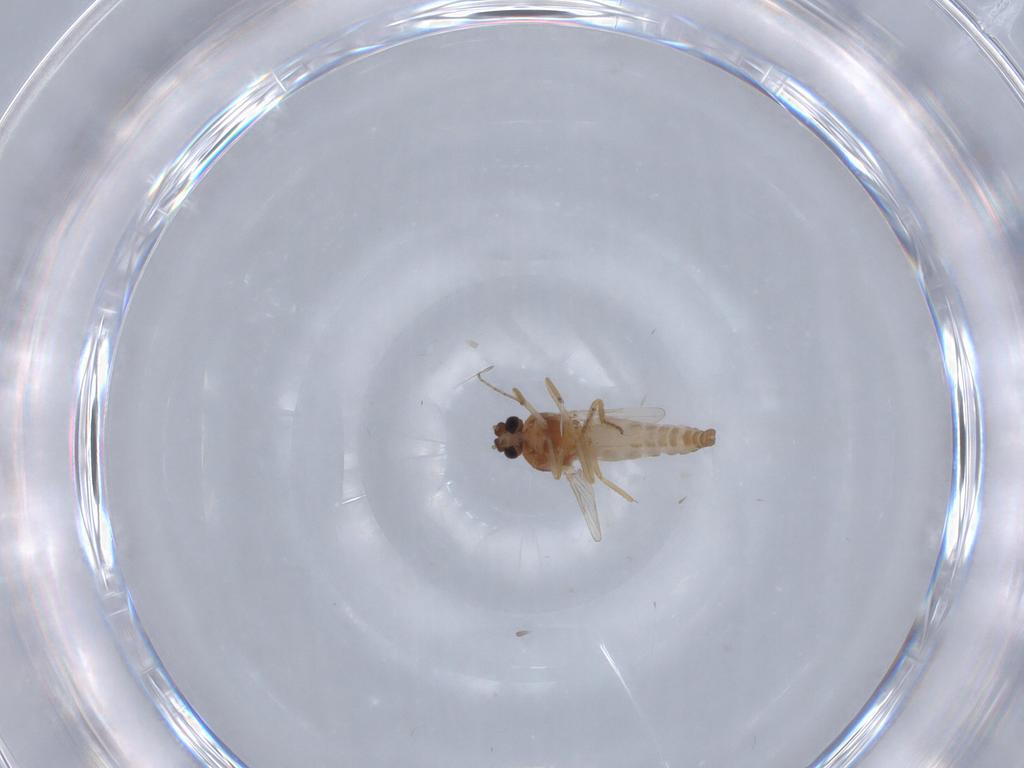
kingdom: Animalia
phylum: Arthropoda
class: Insecta
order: Diptera
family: Ceratopogonidae
